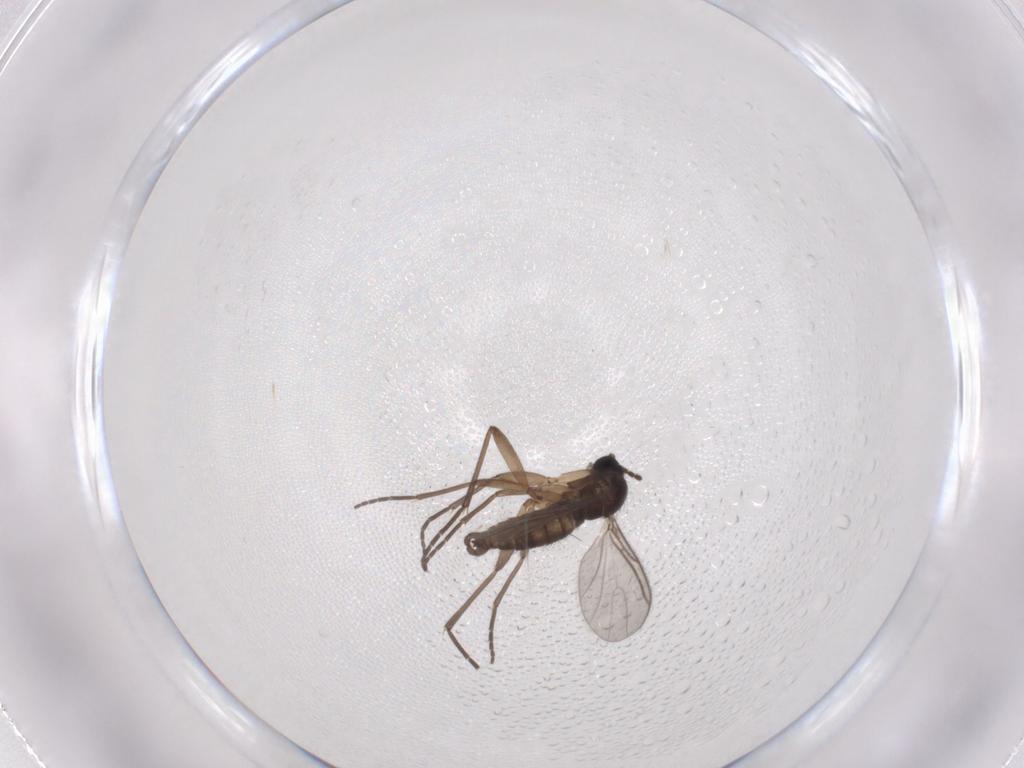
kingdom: Animalia
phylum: Arthropoda
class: Insecta
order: Diptera
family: Sciaridae
